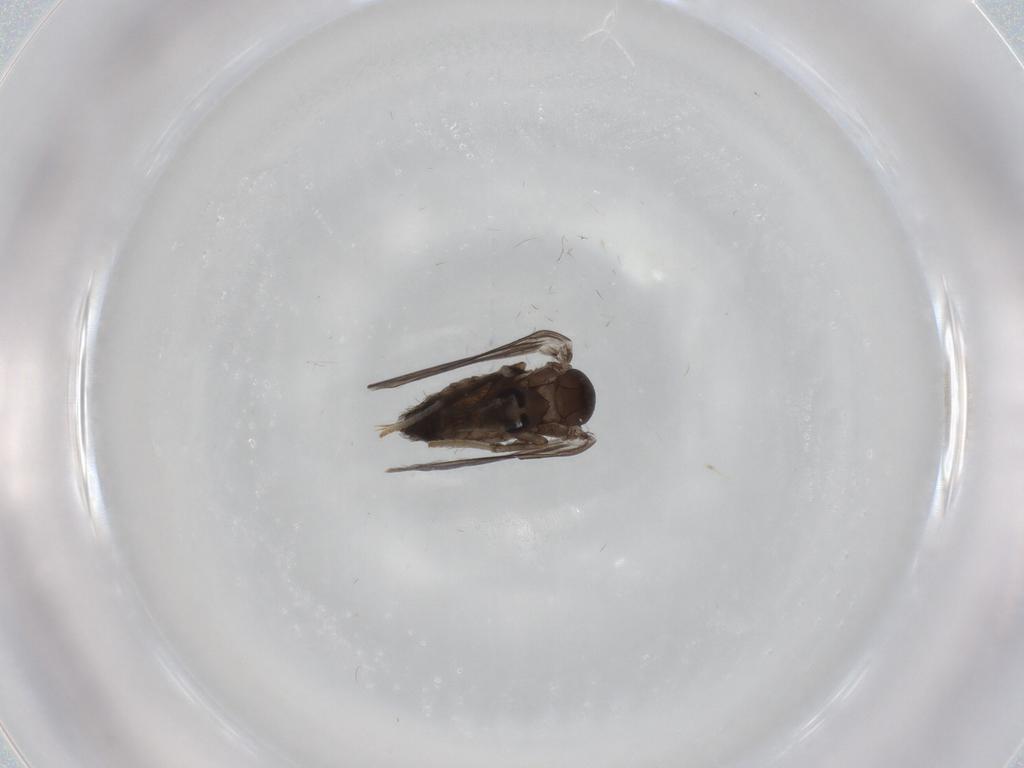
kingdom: Animalia
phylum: Arthropoda
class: Insecta
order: Diptera
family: Psychodidae
